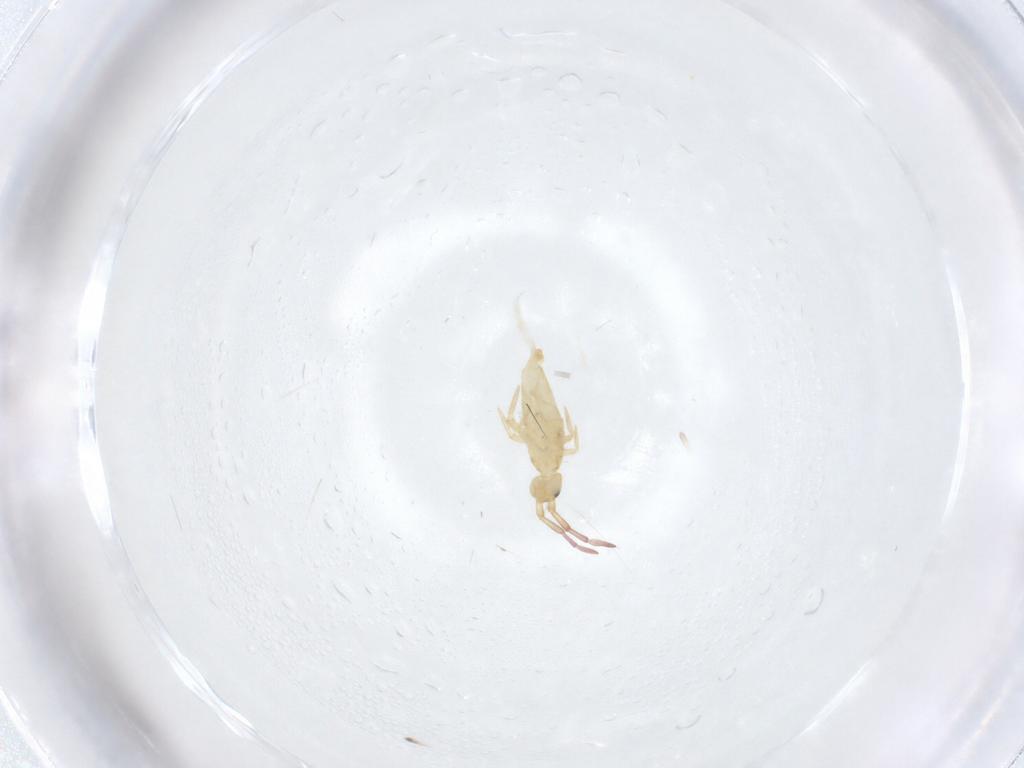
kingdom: Animalia
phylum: Arthropoda
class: Collembola
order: Entomobryomorpha
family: Entomobryidae
